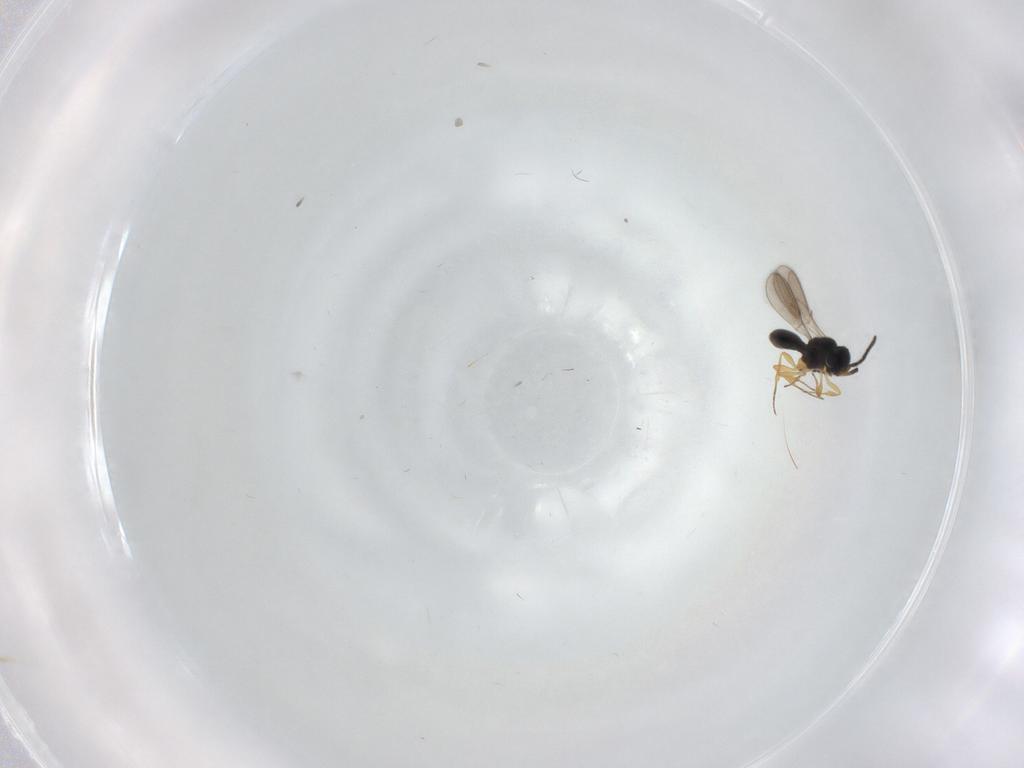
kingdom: Animalia
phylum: Arthropoda
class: Insecta
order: Hymenoptera
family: Scelionidae
